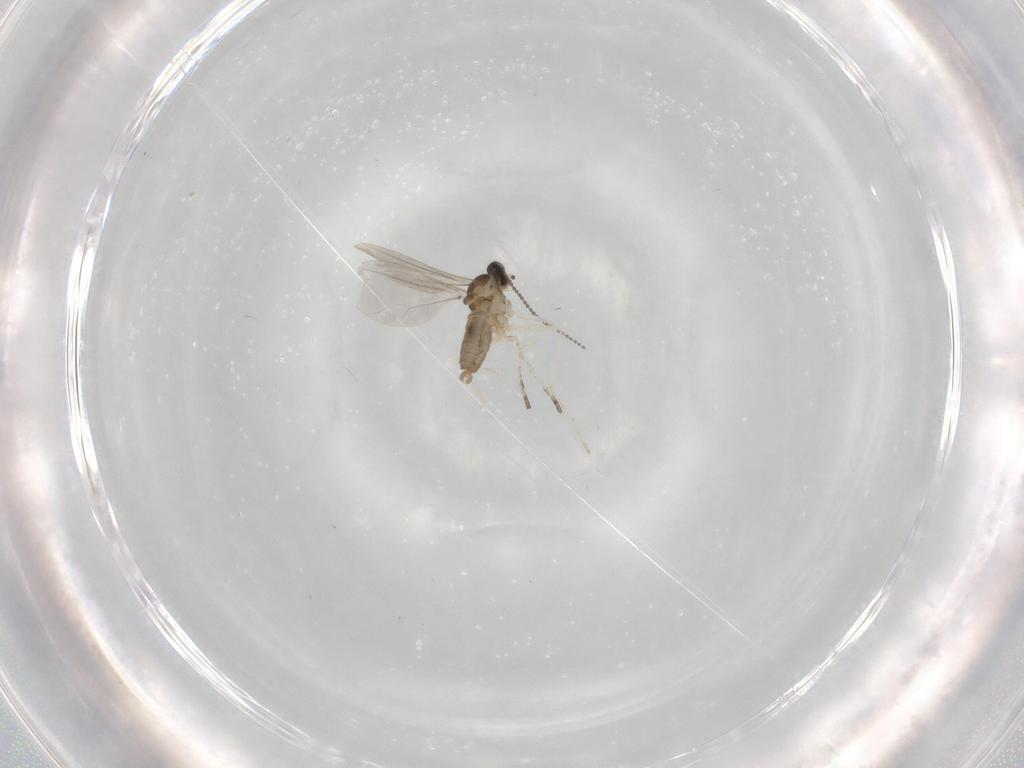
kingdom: Animalia
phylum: Arthropoda
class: Insecta
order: Diptera
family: Cecidomyiidae
